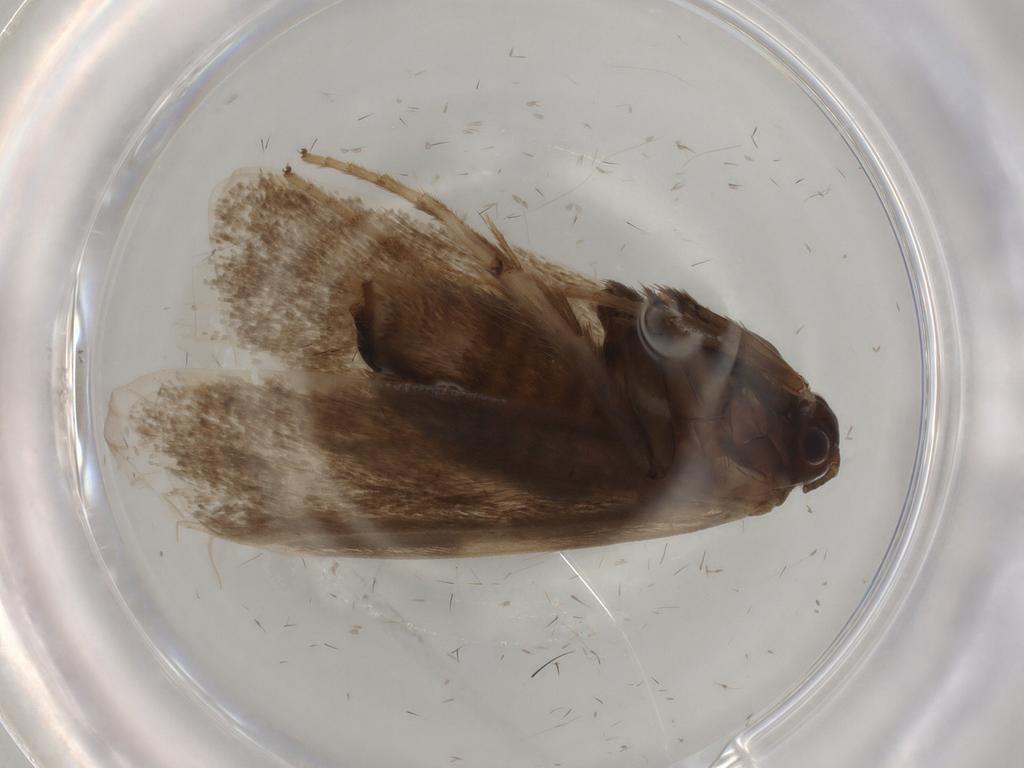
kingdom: Animalia
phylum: Arthropoda
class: Insecta
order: Lepidoptera
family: Incurvariidae
